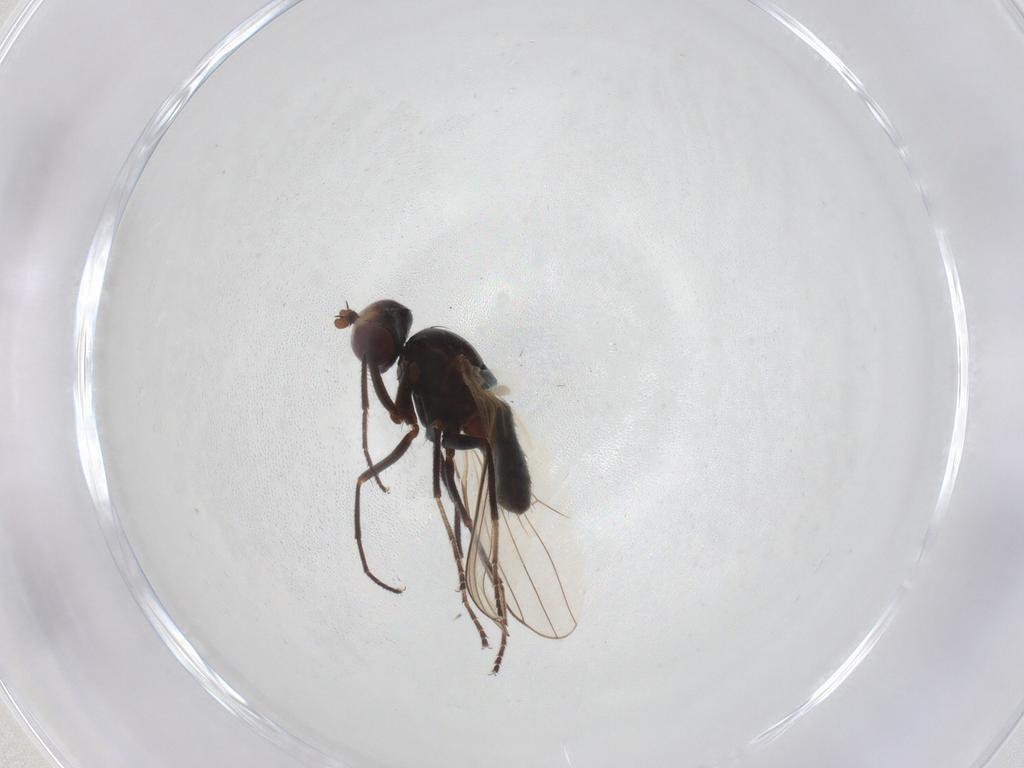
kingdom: Animalia
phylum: Arthropoda
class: Insecta
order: Diptera
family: Canacidae
